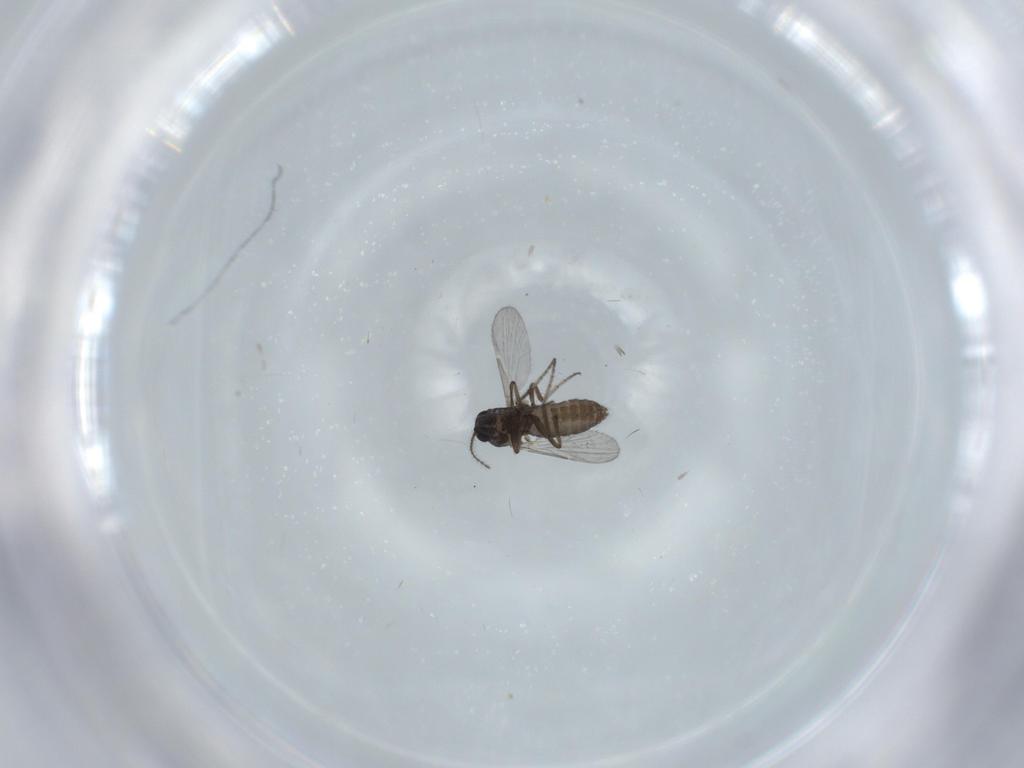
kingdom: Animalia
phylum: Arthropoda
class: Insecta
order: Diptera
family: Ceratopogonidae
